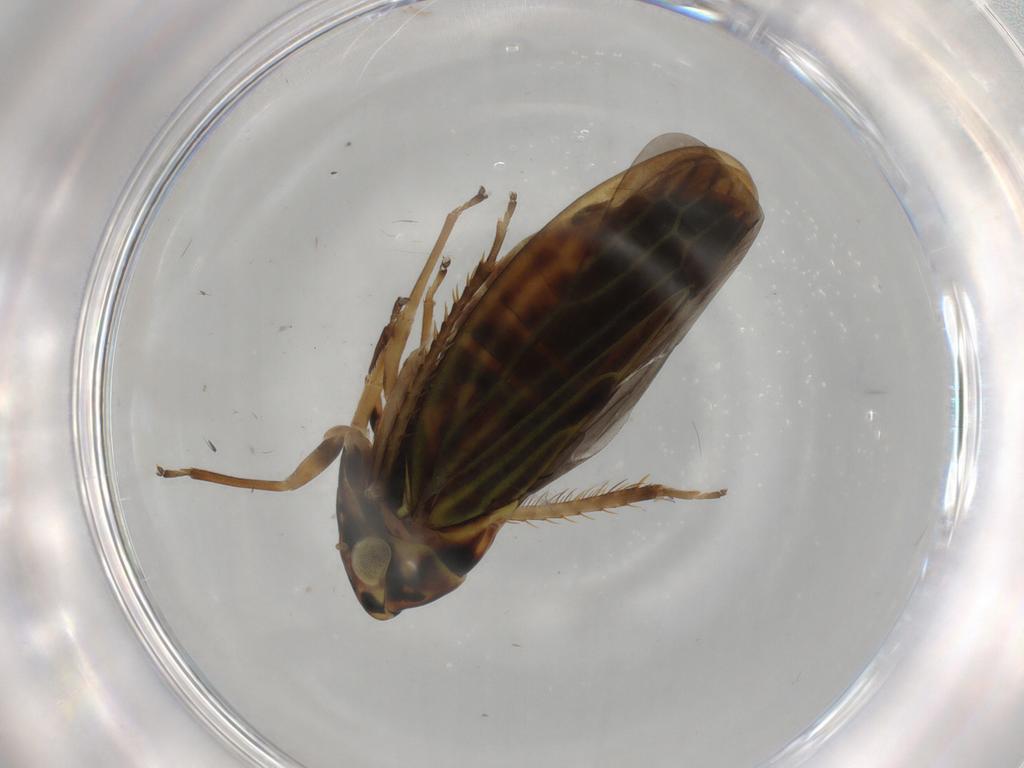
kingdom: Animalia
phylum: Arthropoda
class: Insecta
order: Hemiptera
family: Cicadellidae
